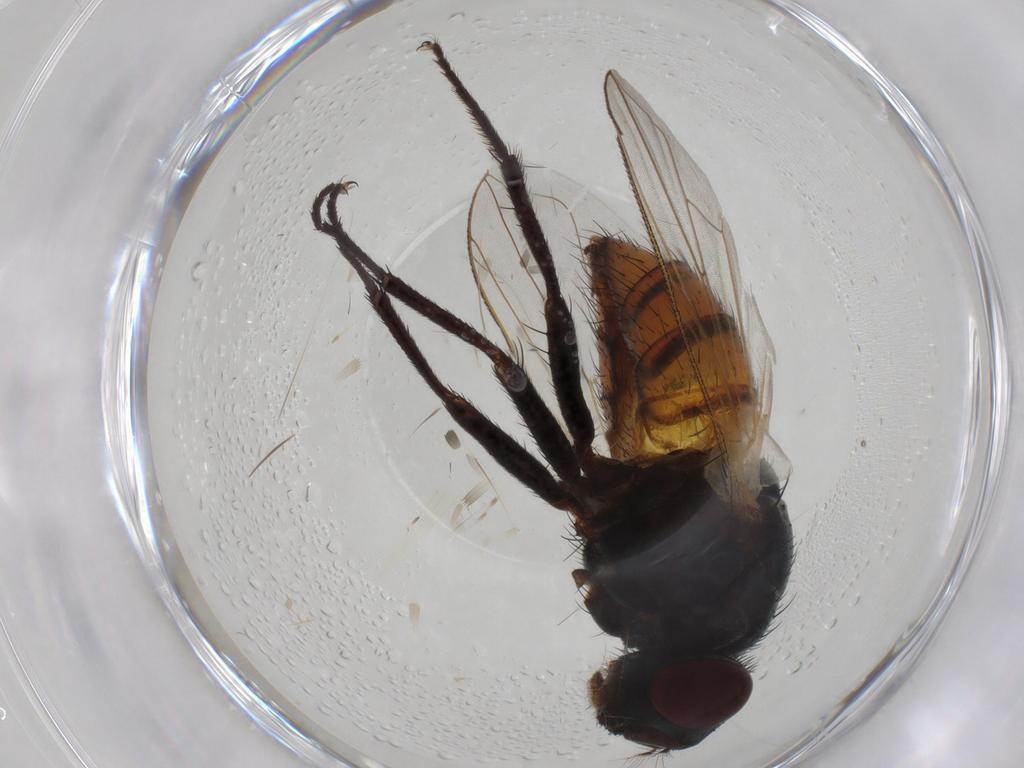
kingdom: Animalia
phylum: Arthropoda
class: Insecta
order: Diptera
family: Muscidae
